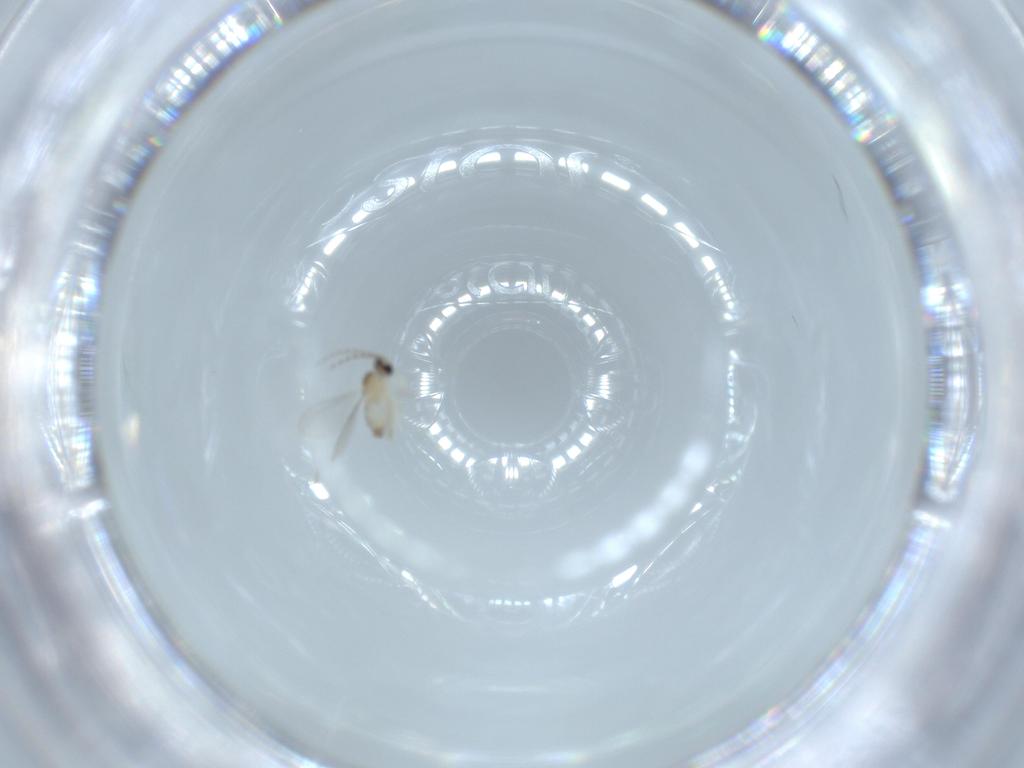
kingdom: Animalia
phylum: Arthropoda
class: Insecta
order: Diptera
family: Cecidomyiidae
